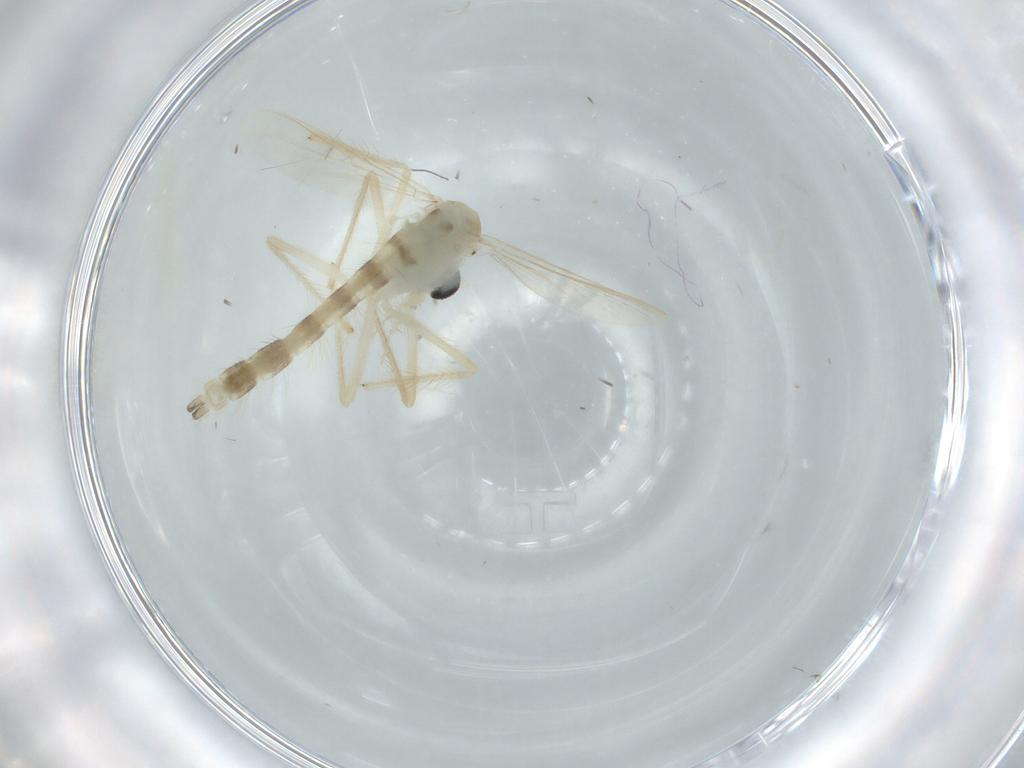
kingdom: Animalia
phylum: Arthropoda
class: Insecta
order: Diptera
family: Chironomidae
